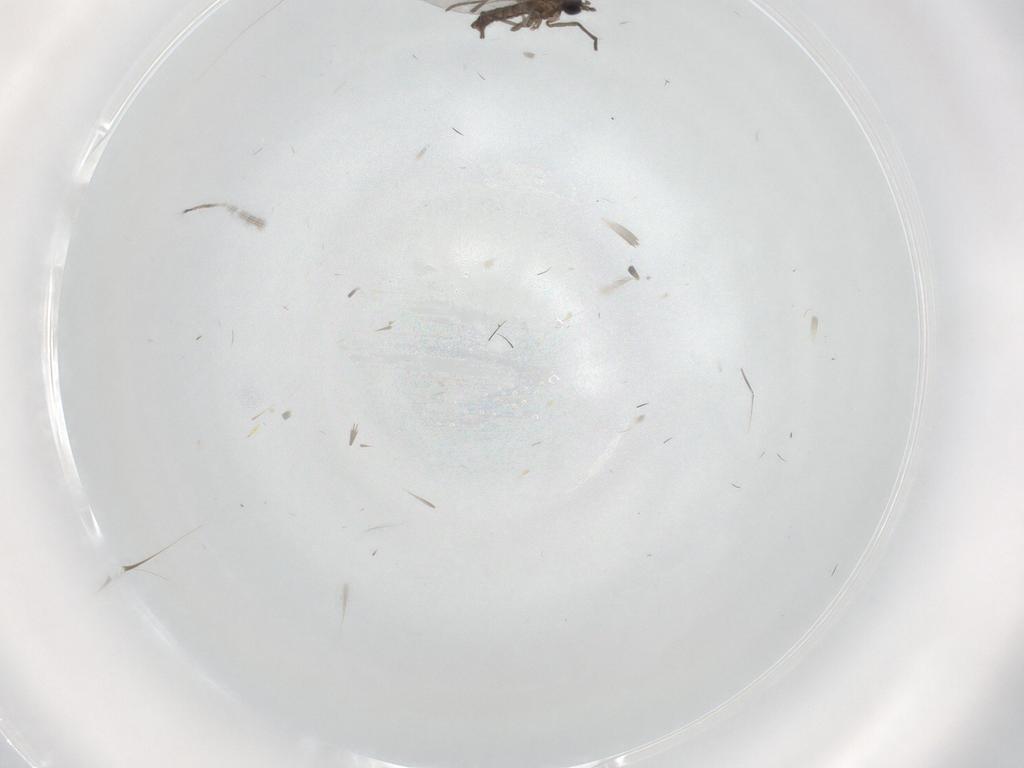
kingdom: Animalia
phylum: Arthropoda
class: Insecta
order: Diptera
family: Sciaridae
